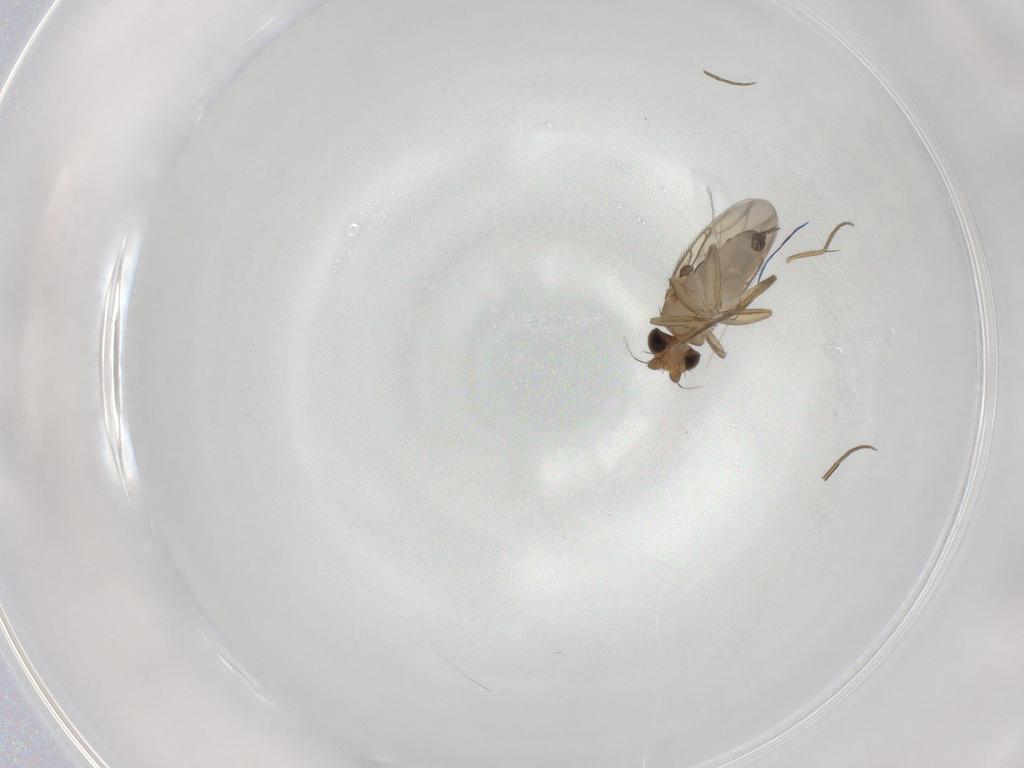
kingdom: Animalia
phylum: Arthropoda
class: Insecta
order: Diptera
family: Phoridae
